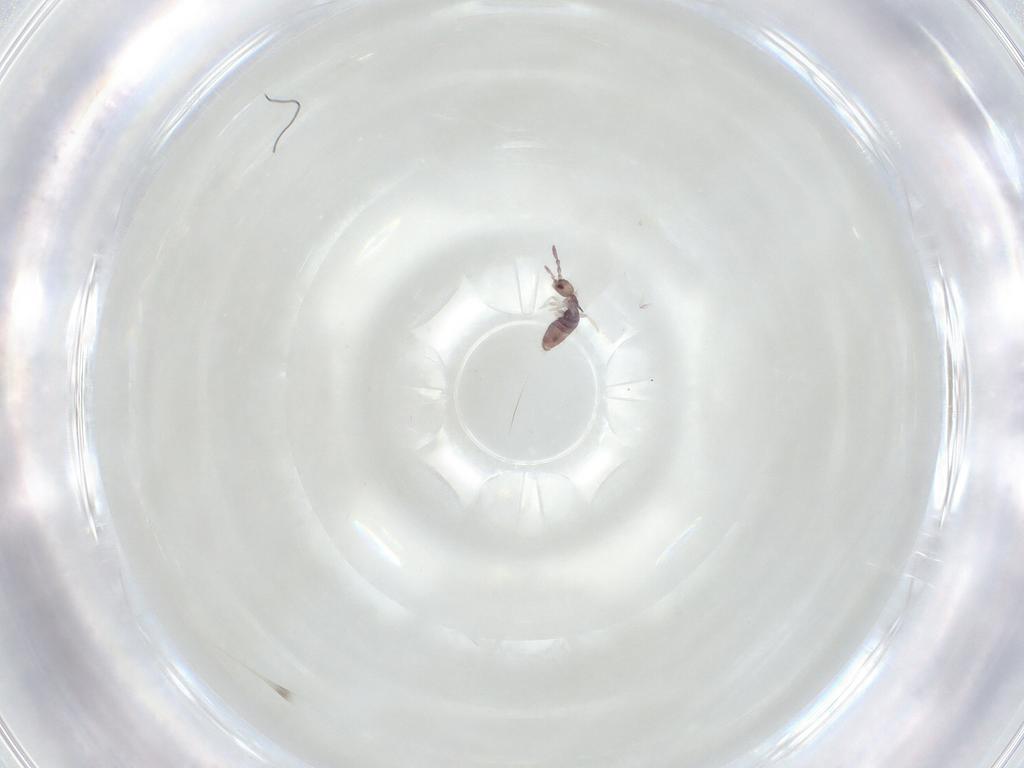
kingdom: Animalia
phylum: Arthropoda
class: Collembola
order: Entomobryomorpha
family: Entomobryidae
